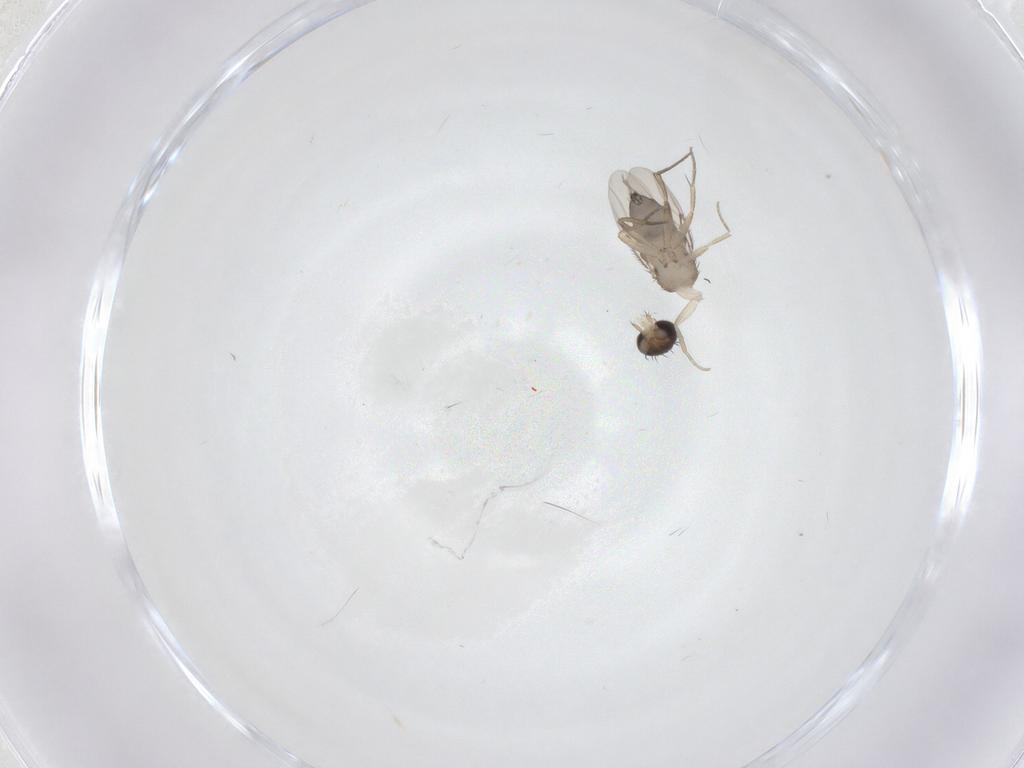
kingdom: Animalia
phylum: Arthropoda
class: Insecta
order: Diptera
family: Phoridae
